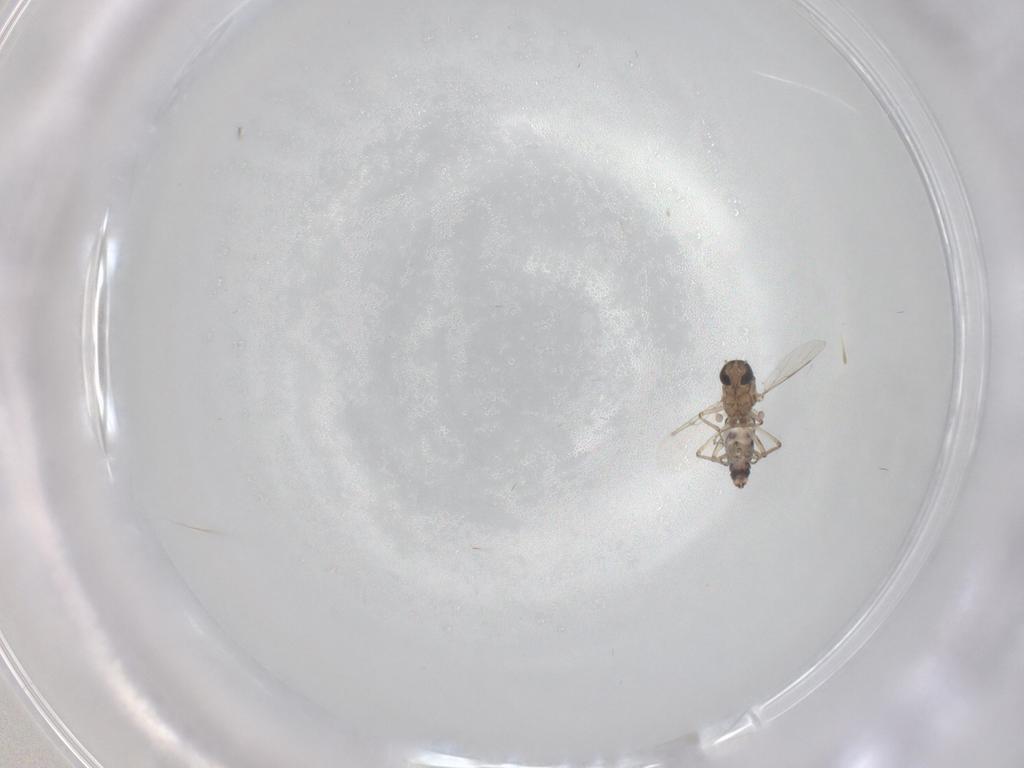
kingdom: Animalia
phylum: Arthropoda
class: Insecta
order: Diptera
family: Ceratopogonidae
